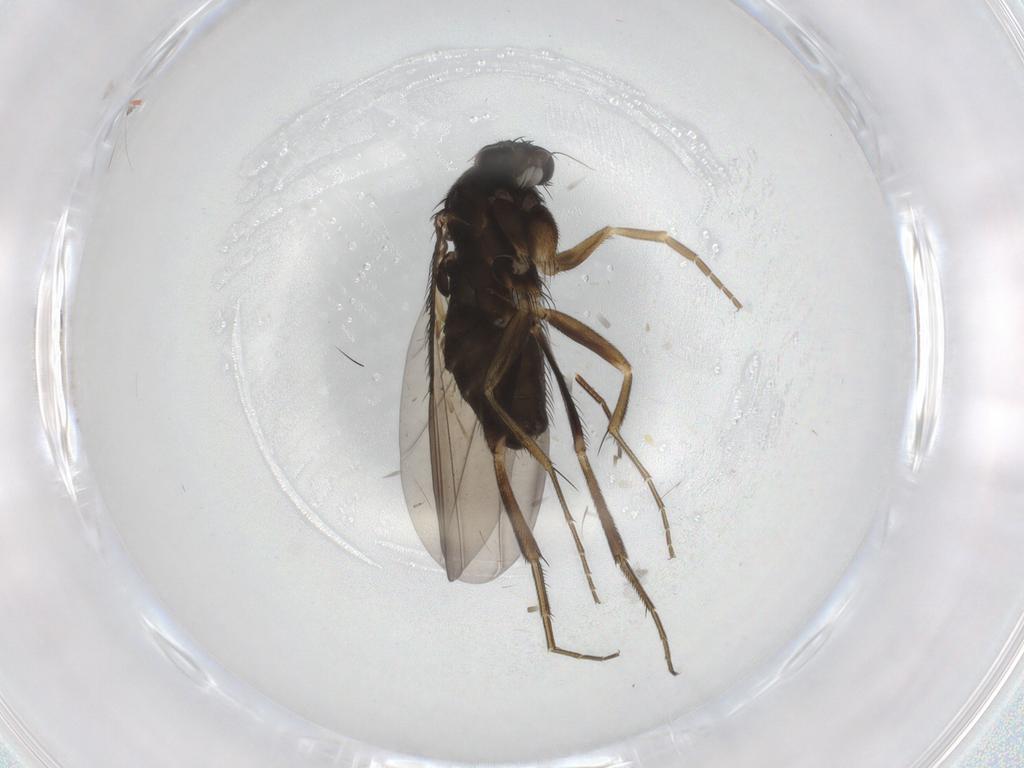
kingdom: Animalia
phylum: Arthropoda
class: Insecta
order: Diptera
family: Phoridae
